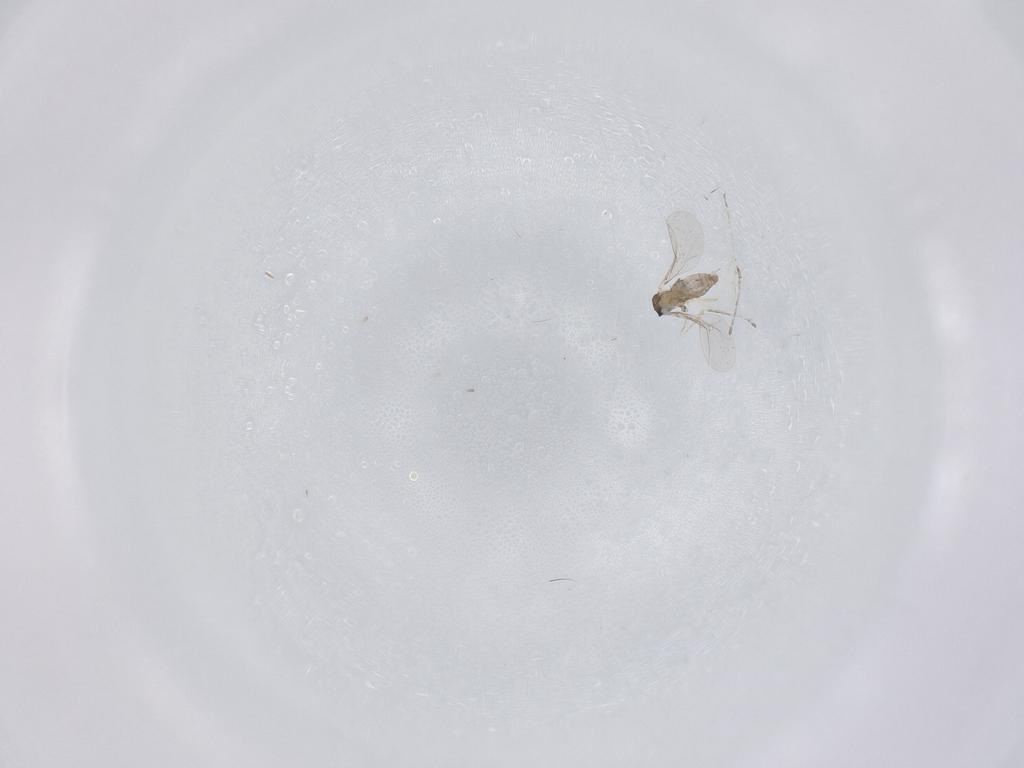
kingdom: Animalia
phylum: Arthropoda
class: Insecta
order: Diptera
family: Cecidomyiidae
